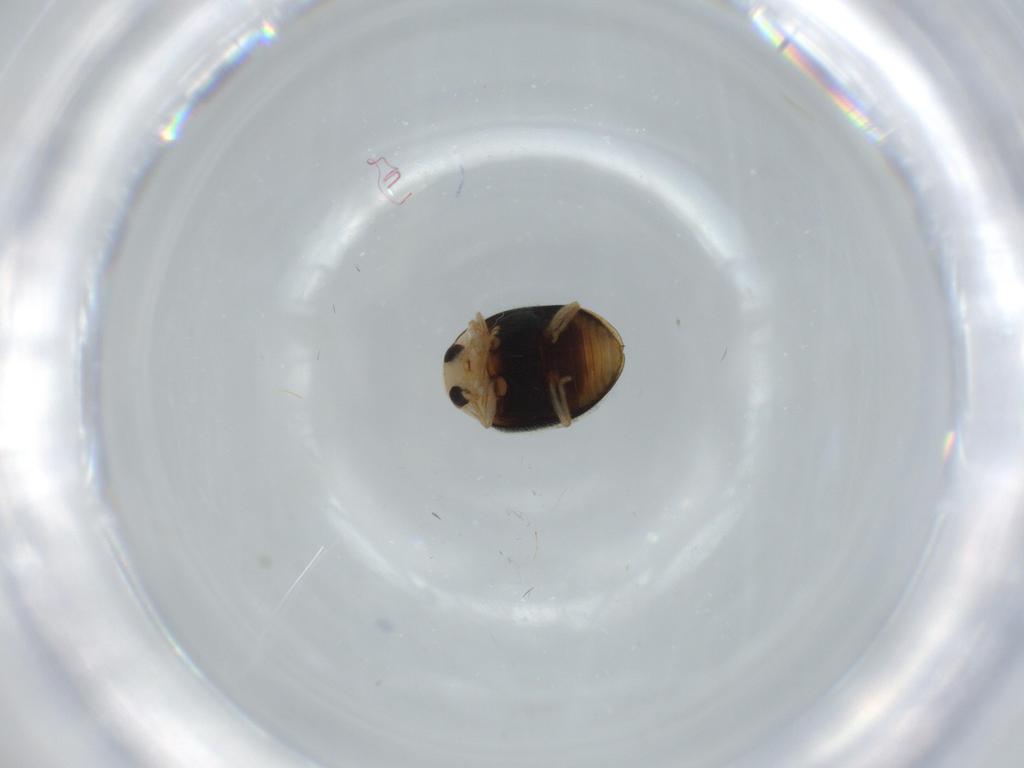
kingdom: Animalia
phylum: Arthropoda
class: Insecta
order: Coleoptera
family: Coccinellidae
